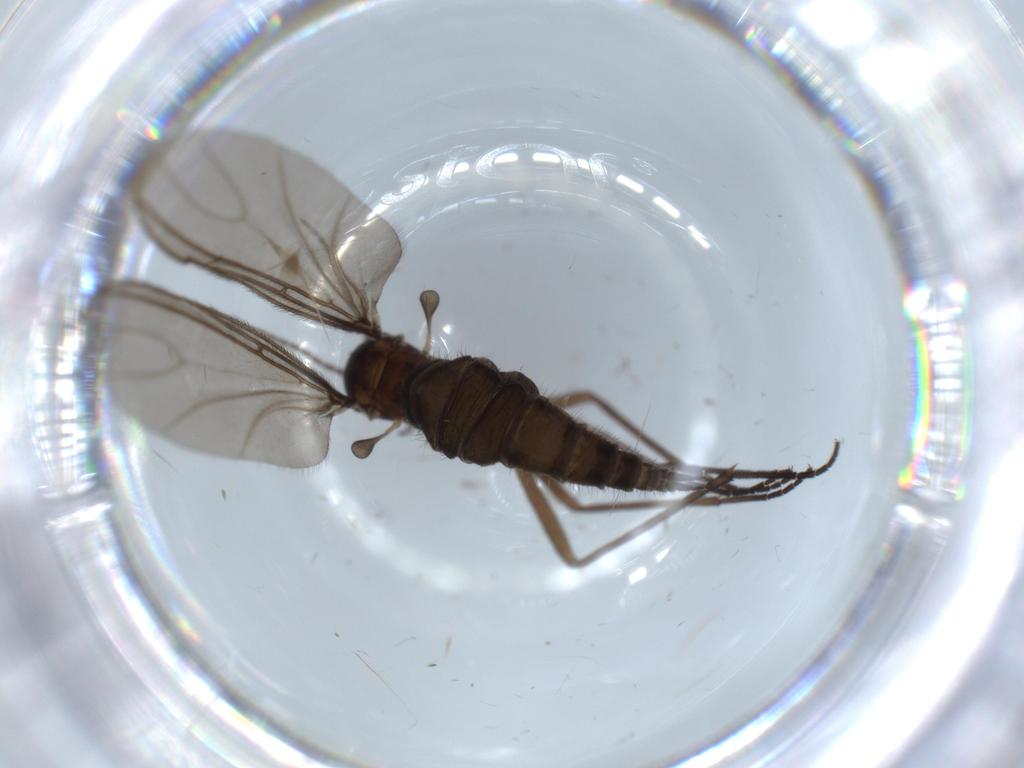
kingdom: Animalia
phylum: Arthropoda
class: Insecta
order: Diptera
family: Sciaridae
